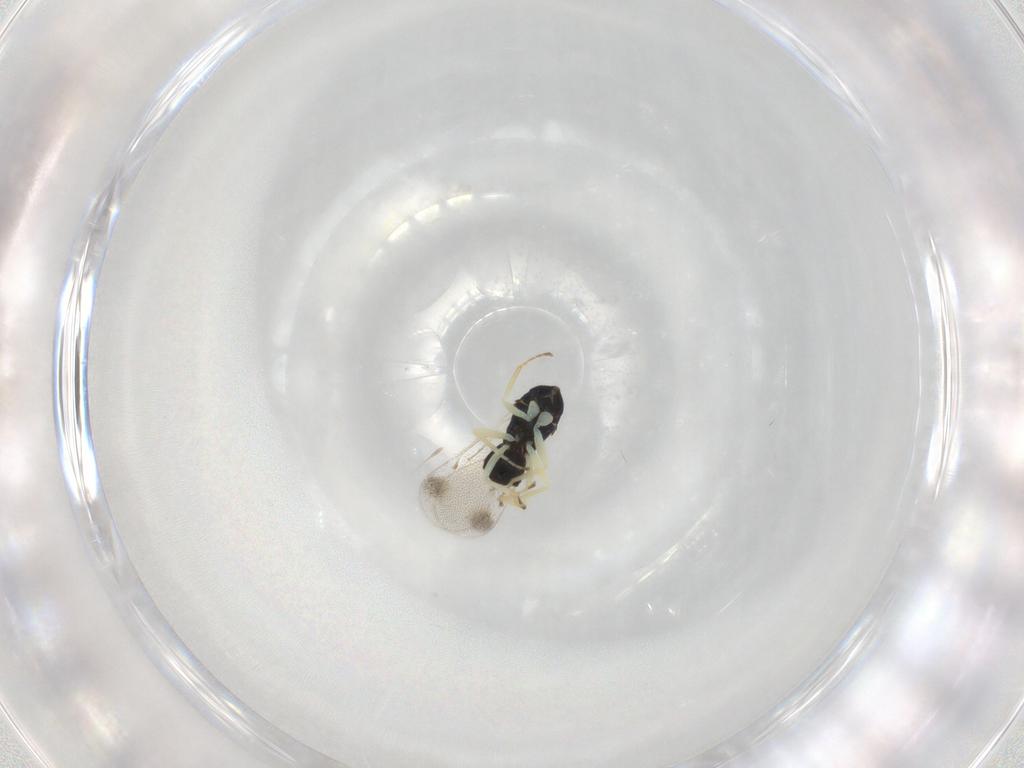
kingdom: Animalia
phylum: Arthropoda
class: Insecta
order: Hymenoptera
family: Eulophidae
